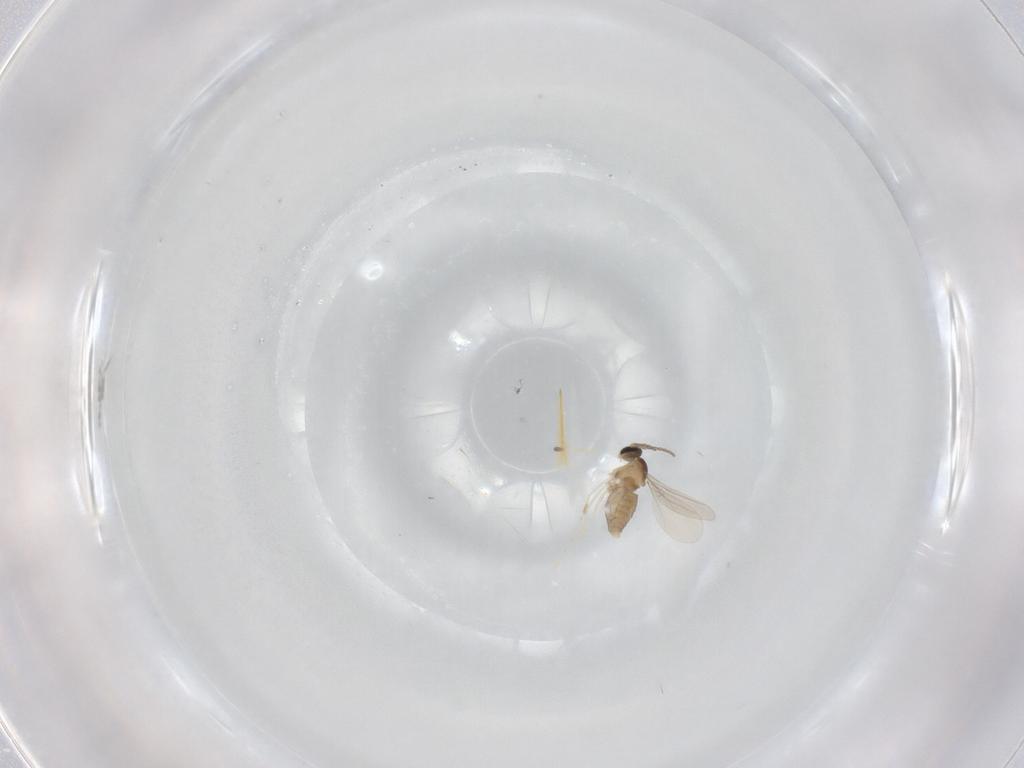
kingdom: Animalia
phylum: Arthropoda
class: Insecta
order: Diptera
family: Cecidomyiidae
